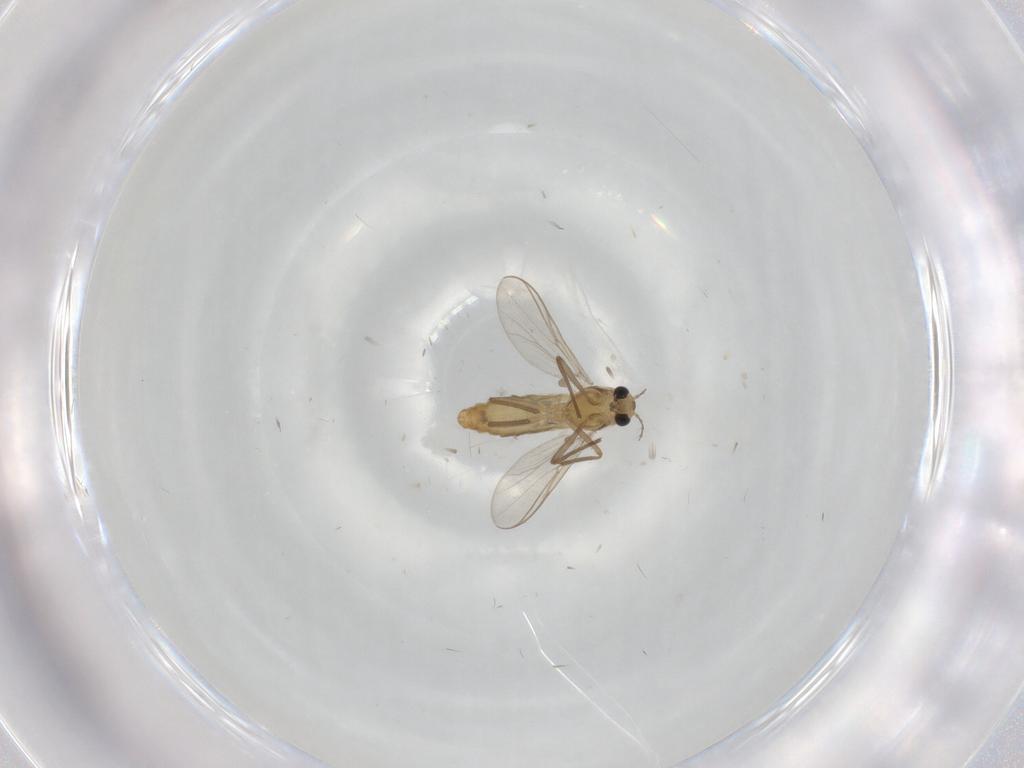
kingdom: Animalia
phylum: Arthropoda
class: Insecta
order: Diptera
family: Chironomidae
